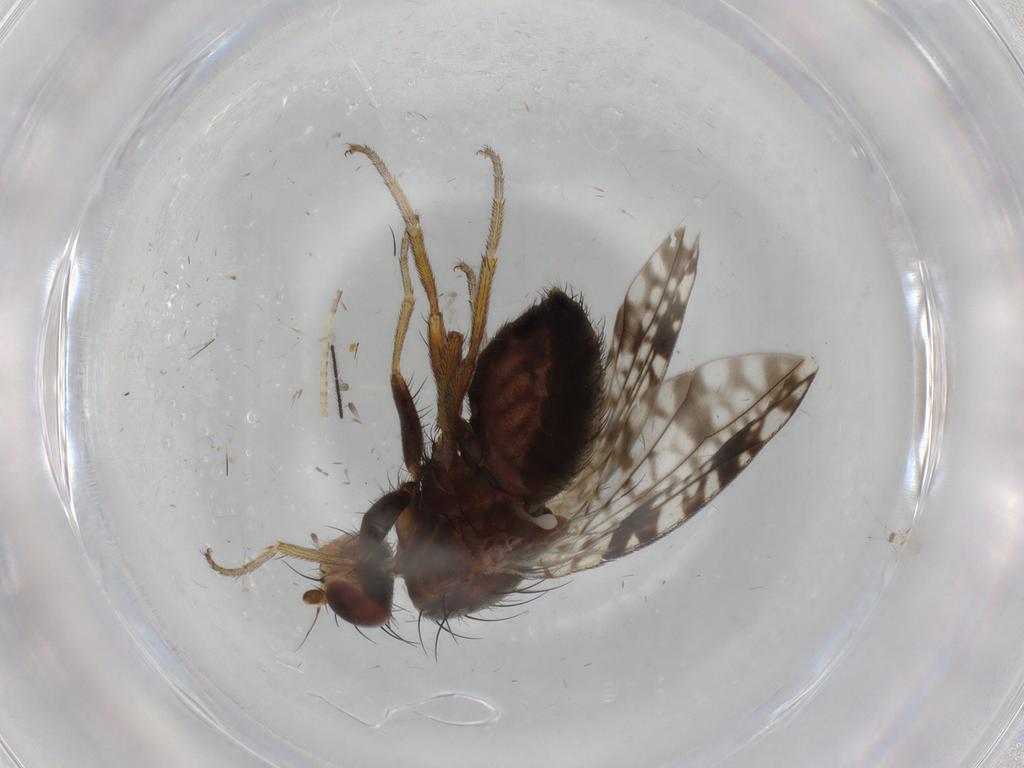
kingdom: Animalia
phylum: Arthropoda
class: Insecta
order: Diptera
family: Tephritidae
